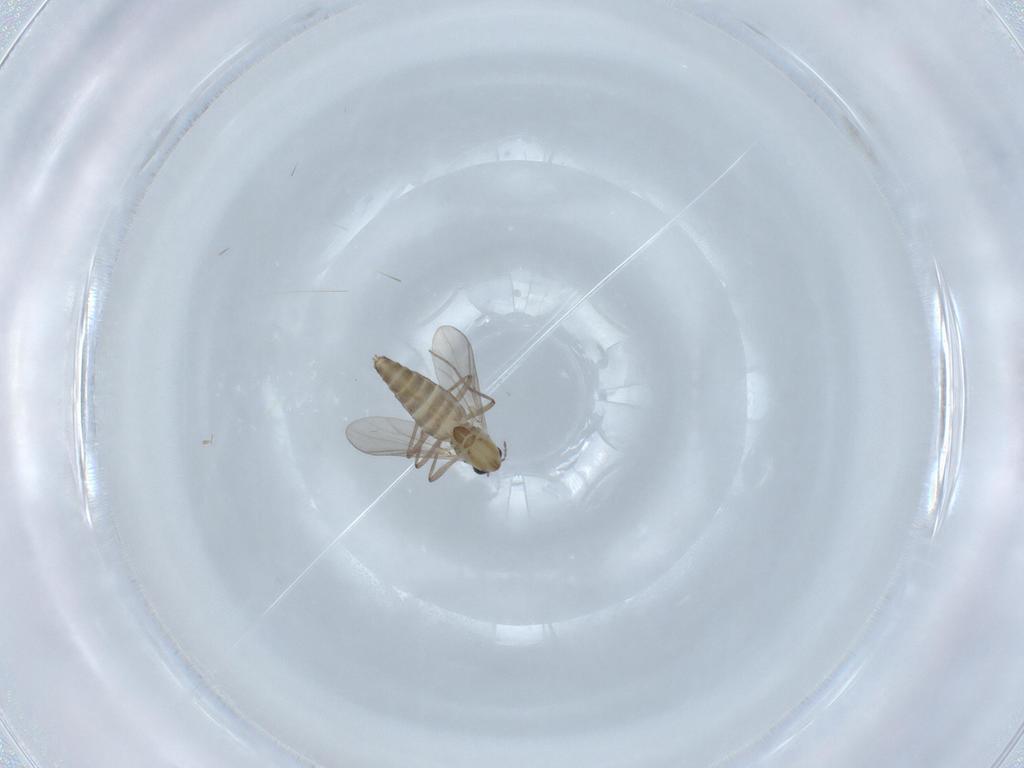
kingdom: Animalia
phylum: Arthropoda
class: Insecta
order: Diptera
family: Chironomidae
